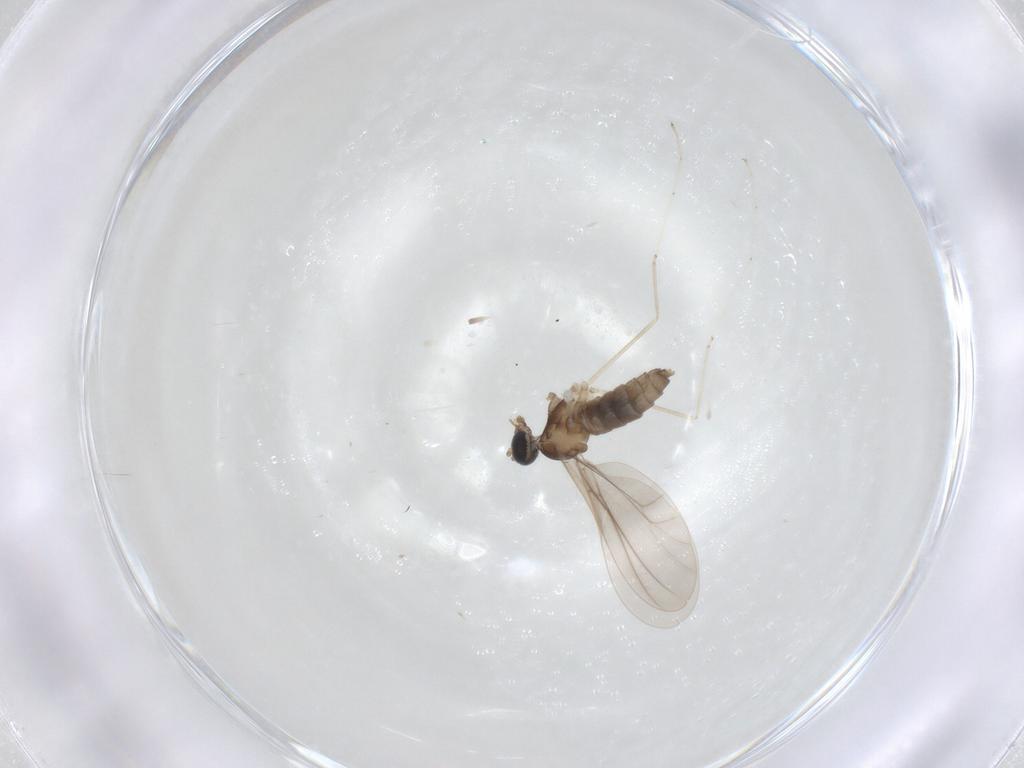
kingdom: Animalia
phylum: Arthropoda
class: Insecta
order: Diptera
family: Cecidomyiidae
